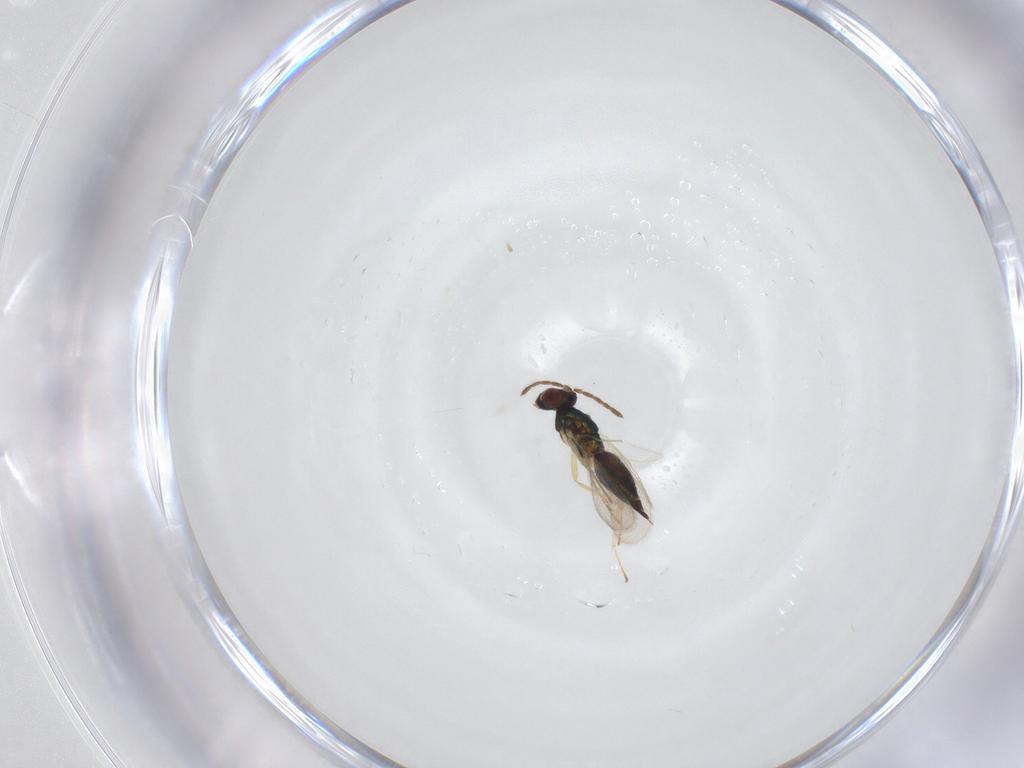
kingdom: Animalia
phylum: Arthropoda
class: Insecta
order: Hymenoptera
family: Eulophidae
